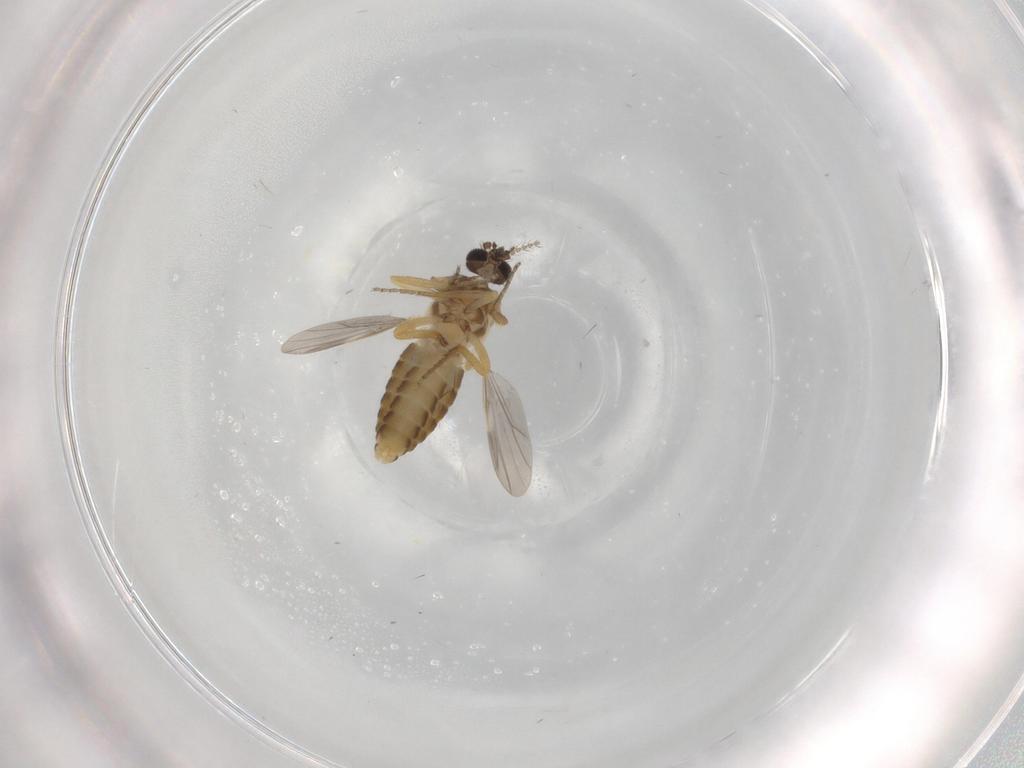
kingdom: Animalia
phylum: Arthropoda
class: Insecta
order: Diptera
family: Ceratopogonidae
